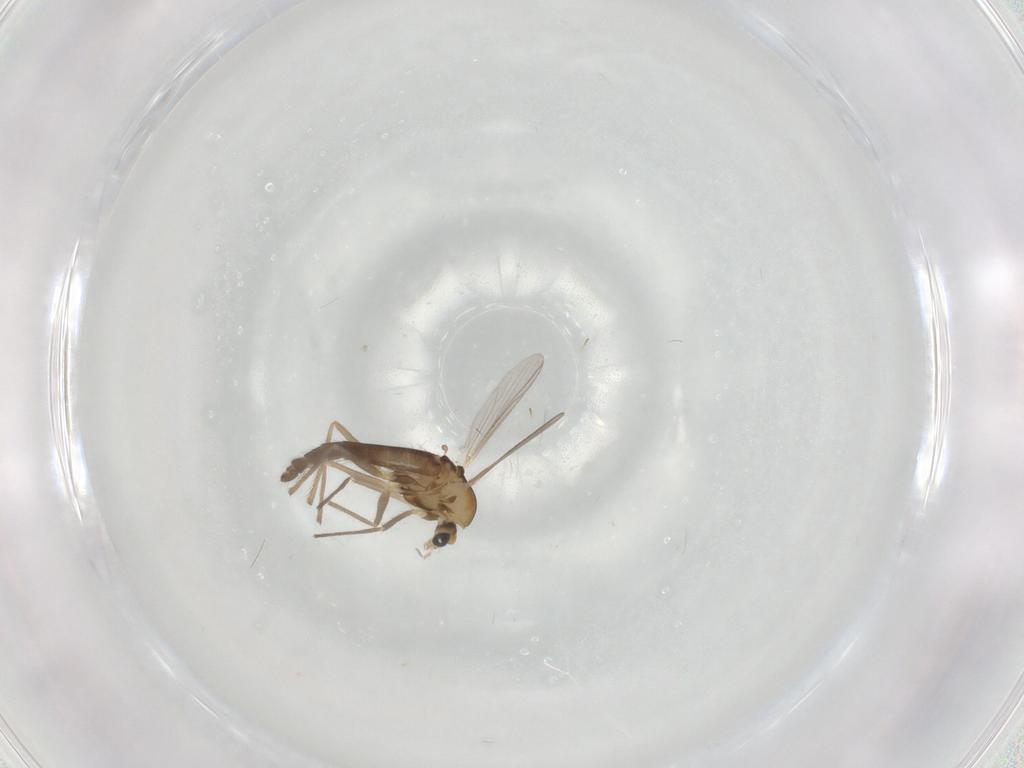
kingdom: Animalia
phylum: Arthropoda
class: Insecta
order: Diptera
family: Chironomidae
